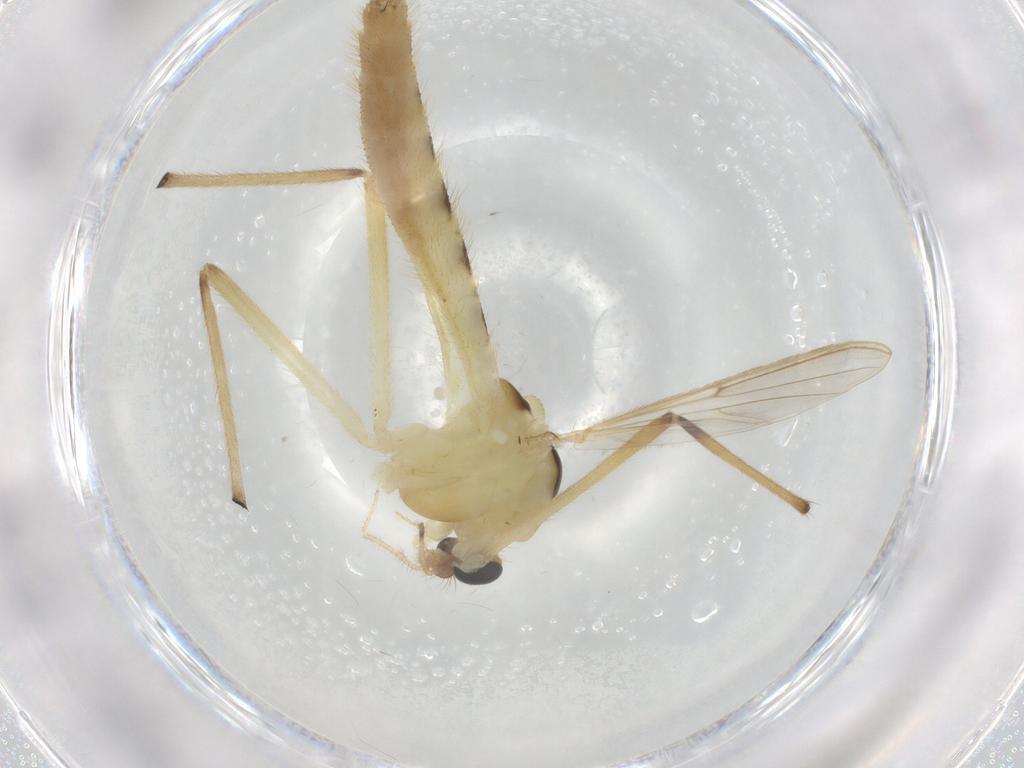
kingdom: Animalia
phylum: Arthropoda
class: Insecta
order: Diptera
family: Chironomidae
